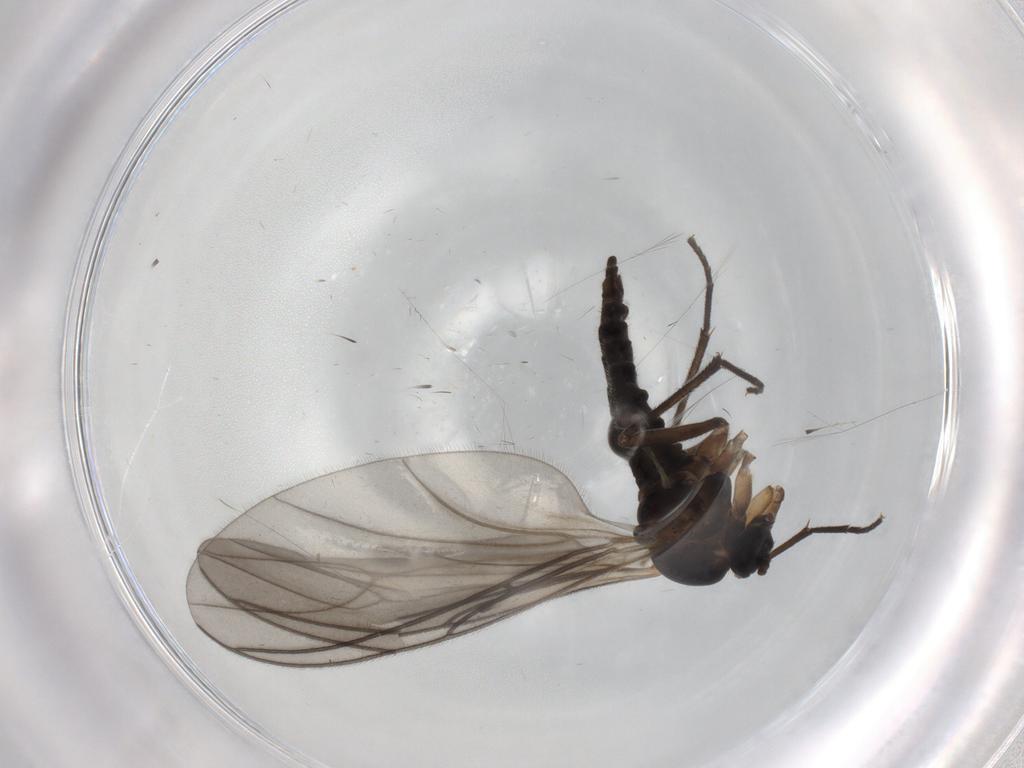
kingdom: Animalia
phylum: Arthropoda
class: Insecta
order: Diptera
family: Sciaridae
